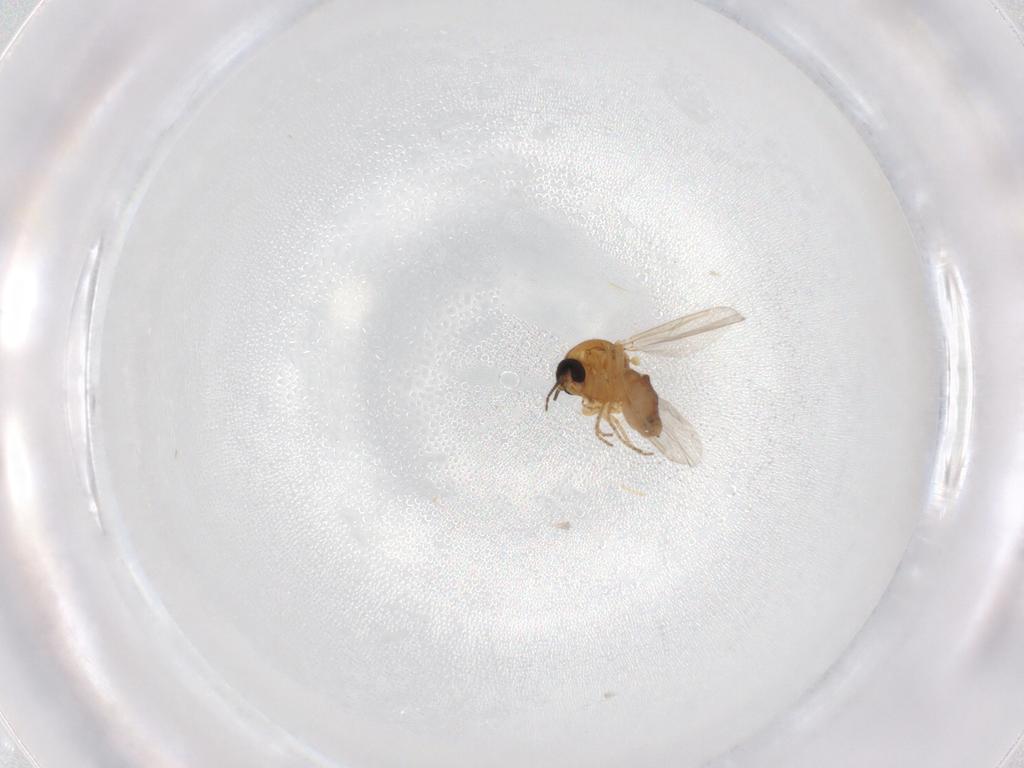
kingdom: Animalia
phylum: Arthropoda
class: Insecta
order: Diptera
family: Ceratopogonidae
